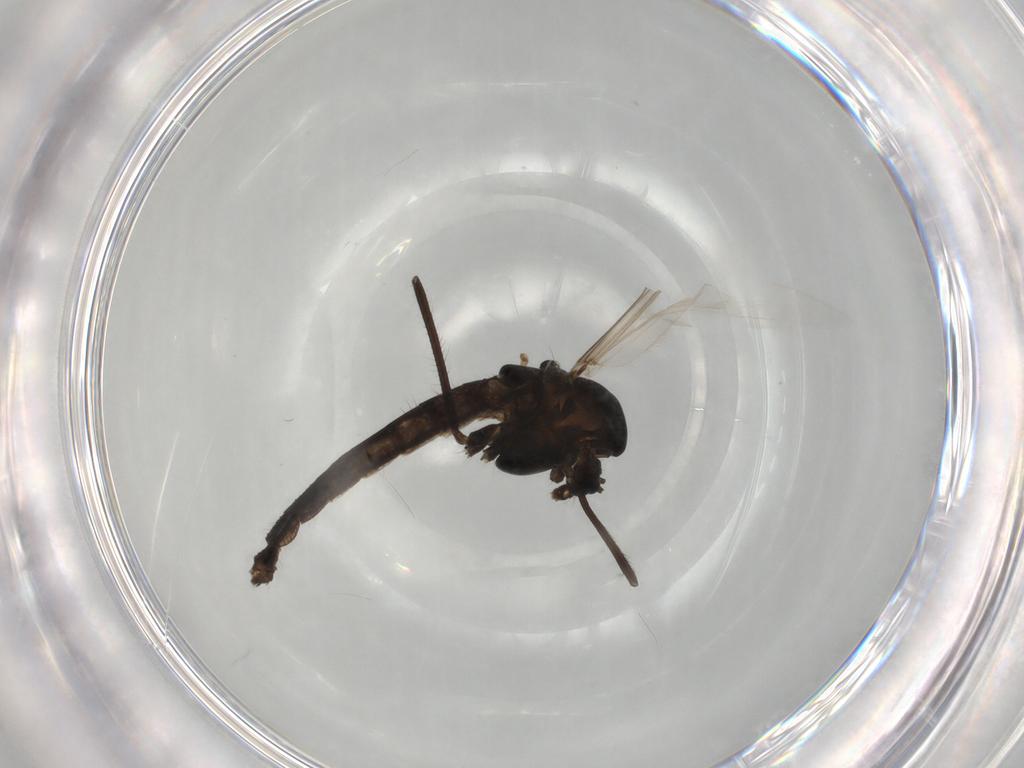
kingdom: Animalia
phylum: Arthropoda
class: Insecta
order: Diptera
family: Chironomidae
